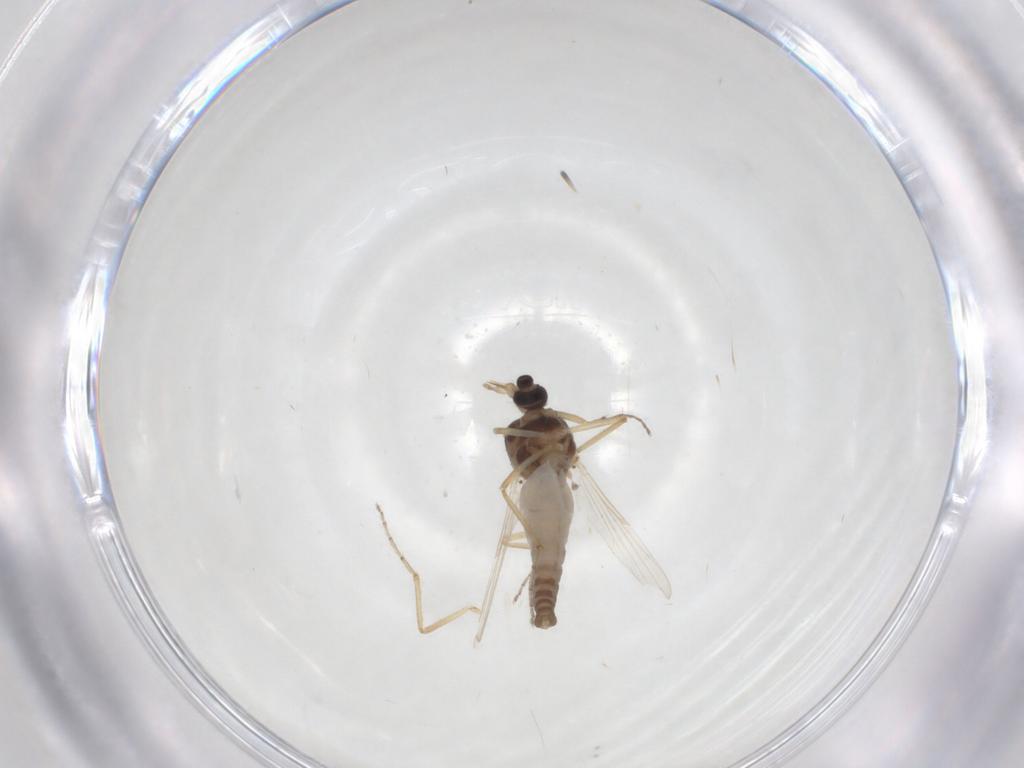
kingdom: Animalia
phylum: Arthropoda
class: Insecta
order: Diptera
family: Ceratopogonidae
